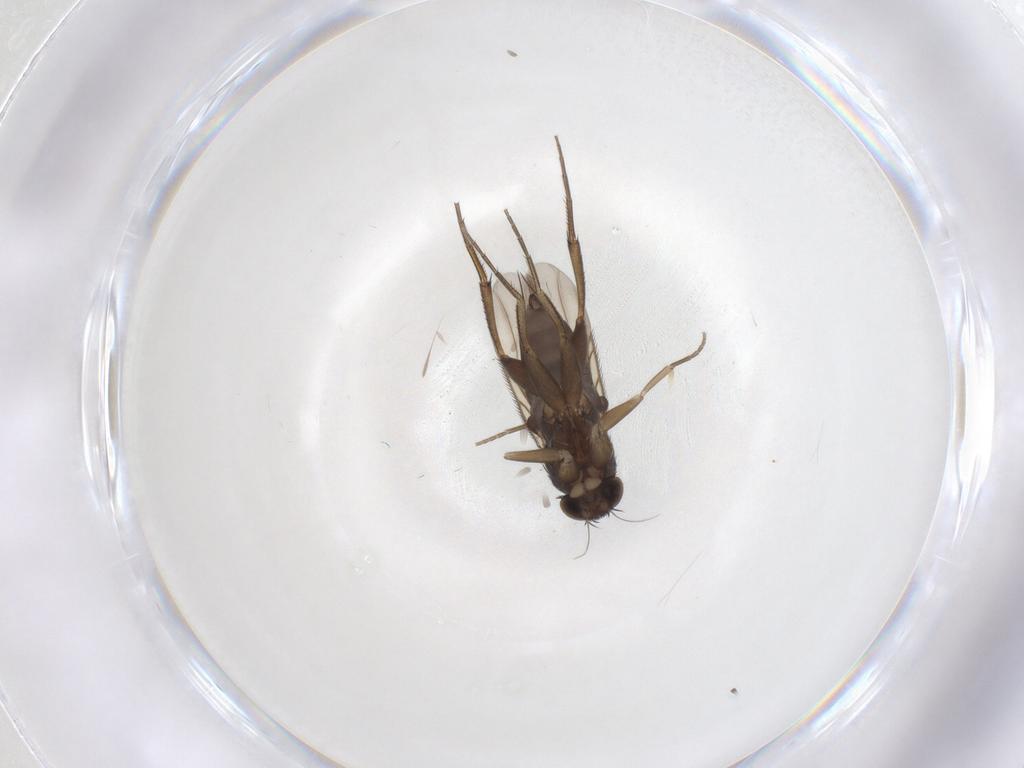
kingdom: Animalia
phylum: Arthropoda
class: Insecta
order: Diptera
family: Phoridae
